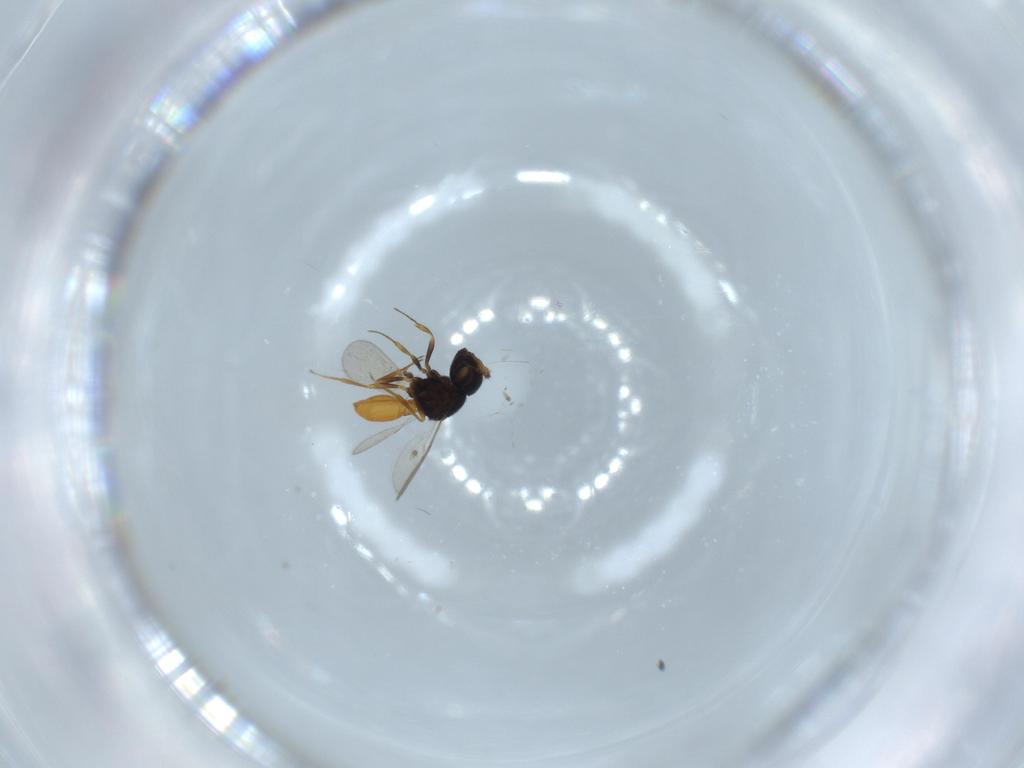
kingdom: Animalia
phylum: Arthropoda
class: Insecta
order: Hymenoptera
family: Scelionidae
